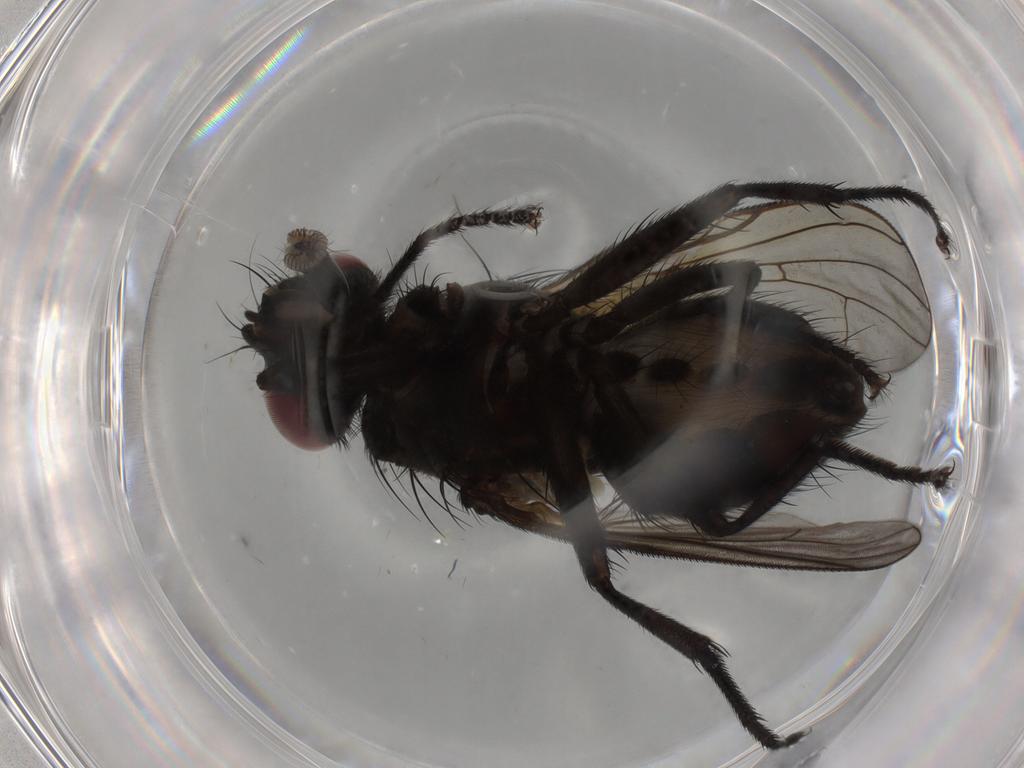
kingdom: Animalia
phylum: Arthropoda
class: Insecta
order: Diptera
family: Muscidae
